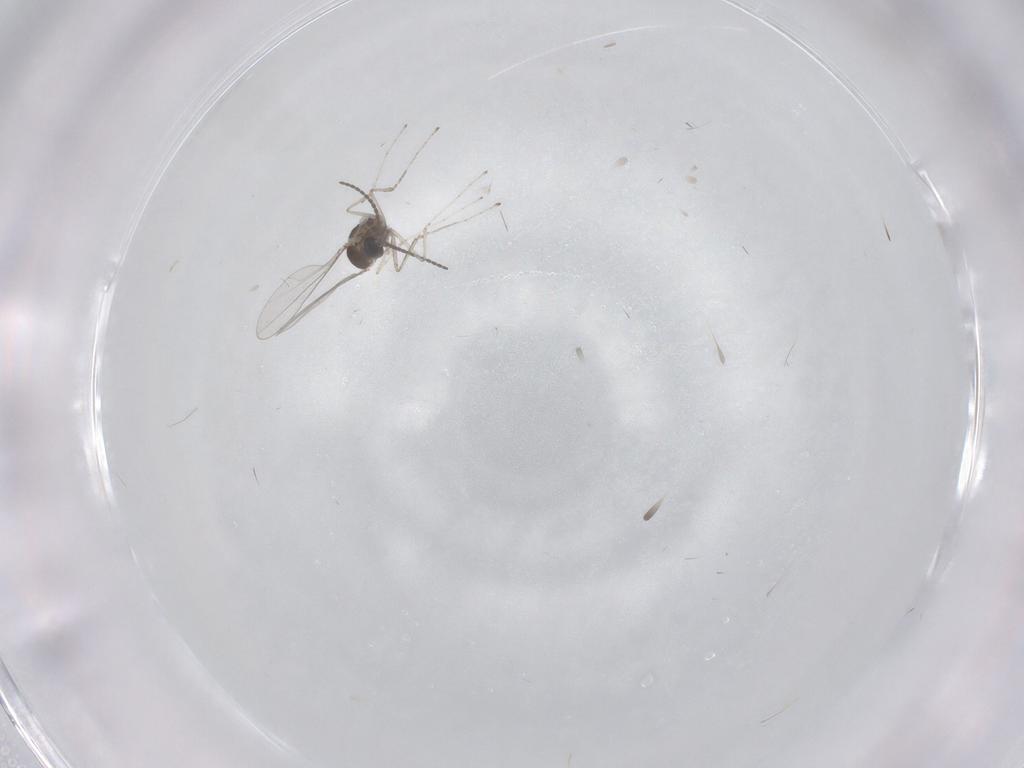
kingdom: Animalia
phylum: Arthropoda
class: Insecta
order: Diptera
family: Cecidomyiidae
